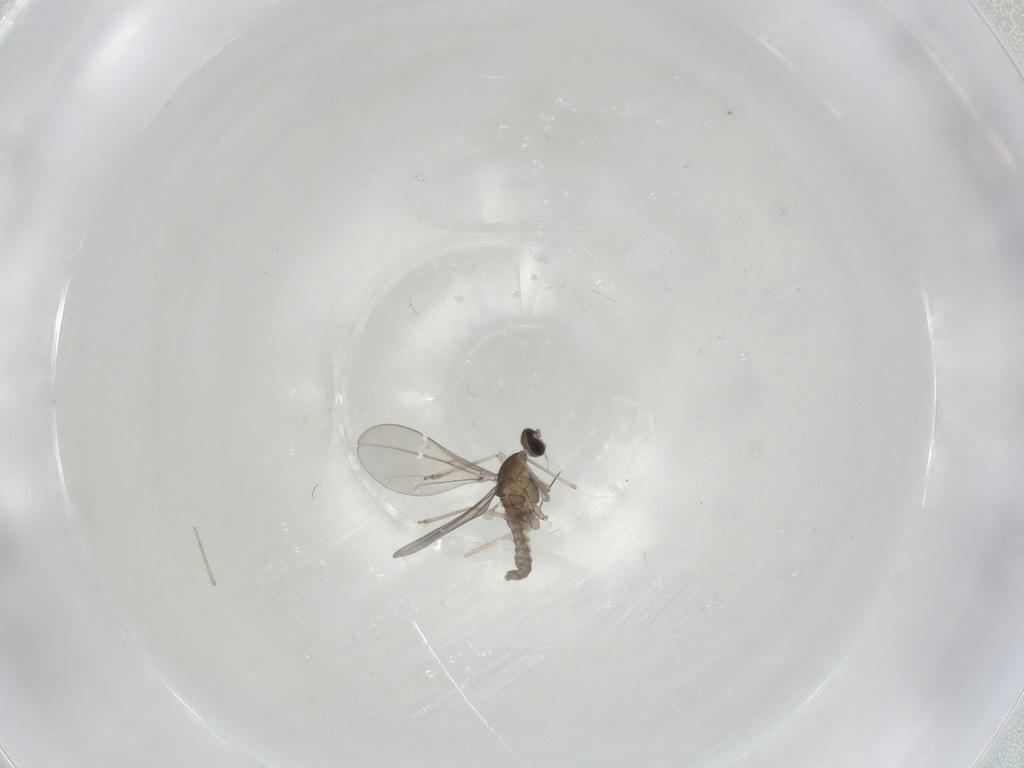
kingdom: Animalia
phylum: Arthropoda
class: Insecta
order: Diptera
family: Cecidomyiidae
